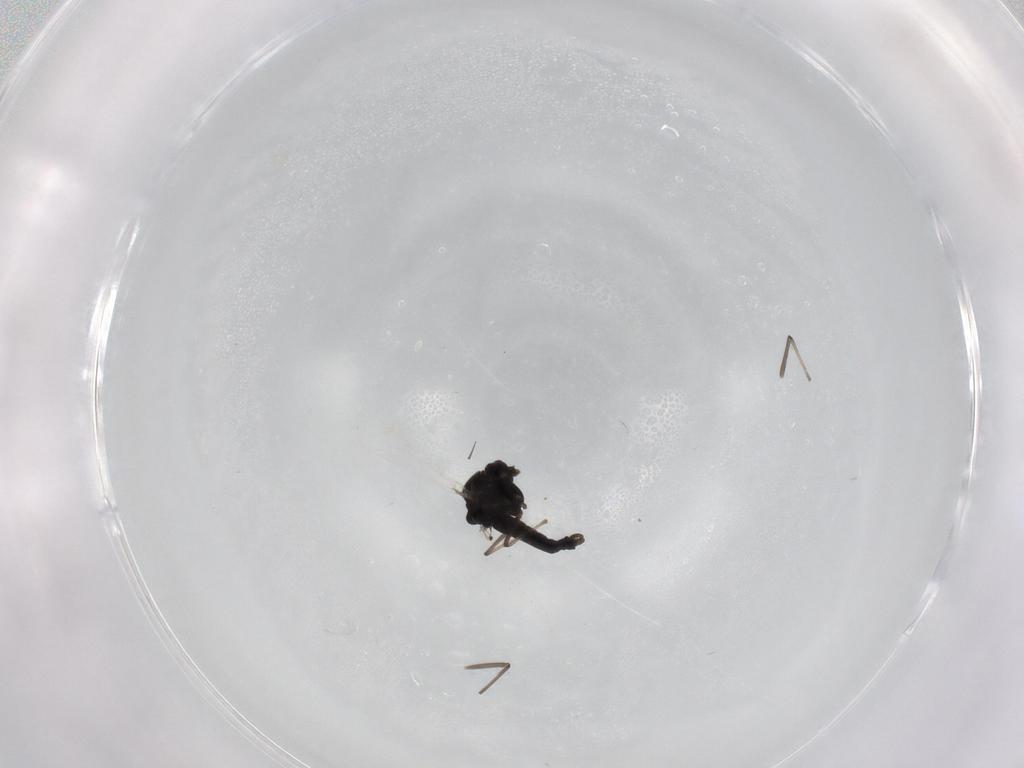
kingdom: Animalia
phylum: Arthropoda
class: Insecta
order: Diptera
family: Chironomidae
